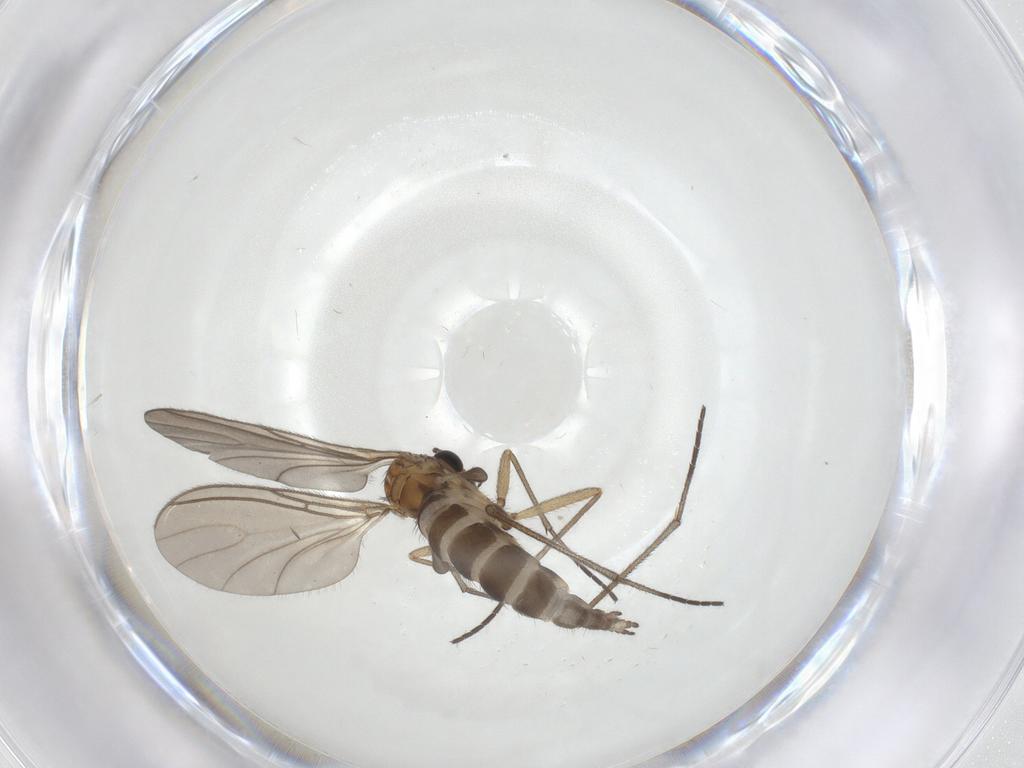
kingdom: Animalia
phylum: Arthropoda
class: Insecta
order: Diptera
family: Sciaridae
